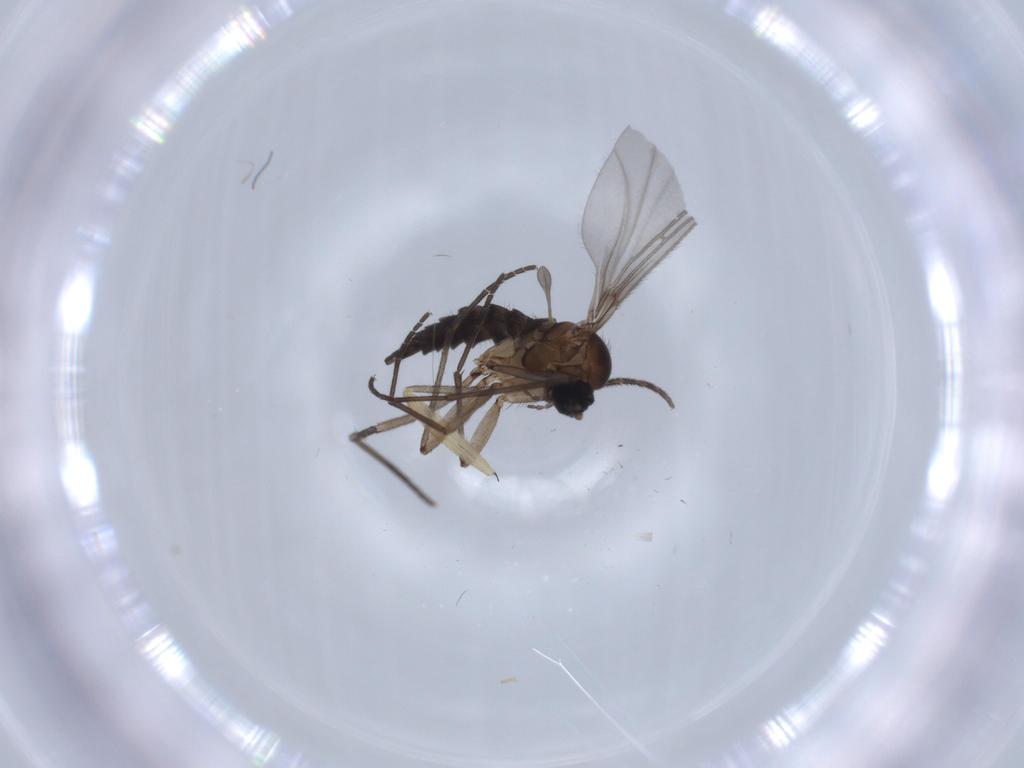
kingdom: Animalia
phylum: Arthropoda
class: Insecta
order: Diptera
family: Sciaridae
